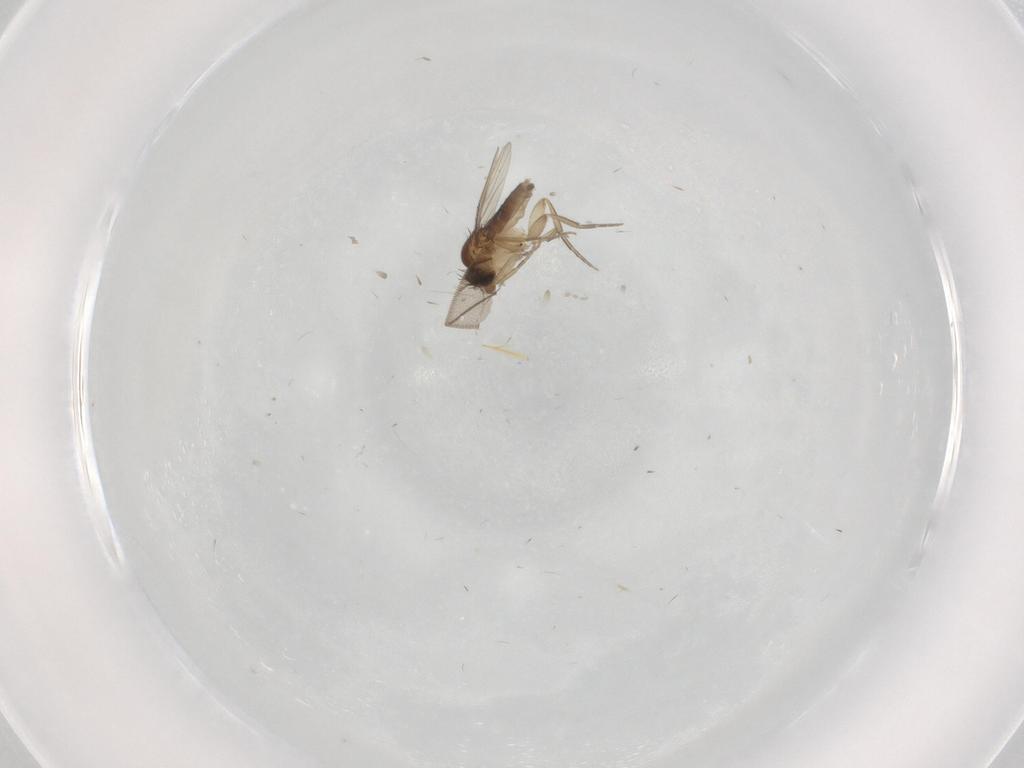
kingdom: Animalia
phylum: Arthropoda
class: Insecta
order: Diptera
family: Phoridae
